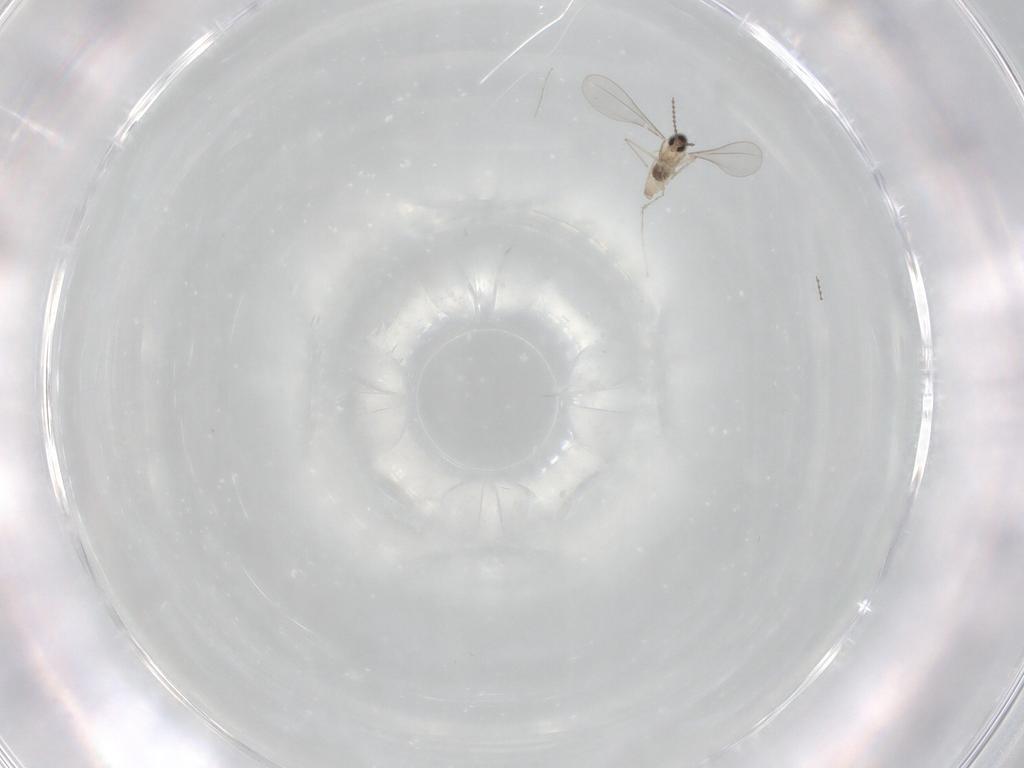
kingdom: Animalia
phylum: Arthropoda
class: Insecta
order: Diptera
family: Cecidomyiidae
